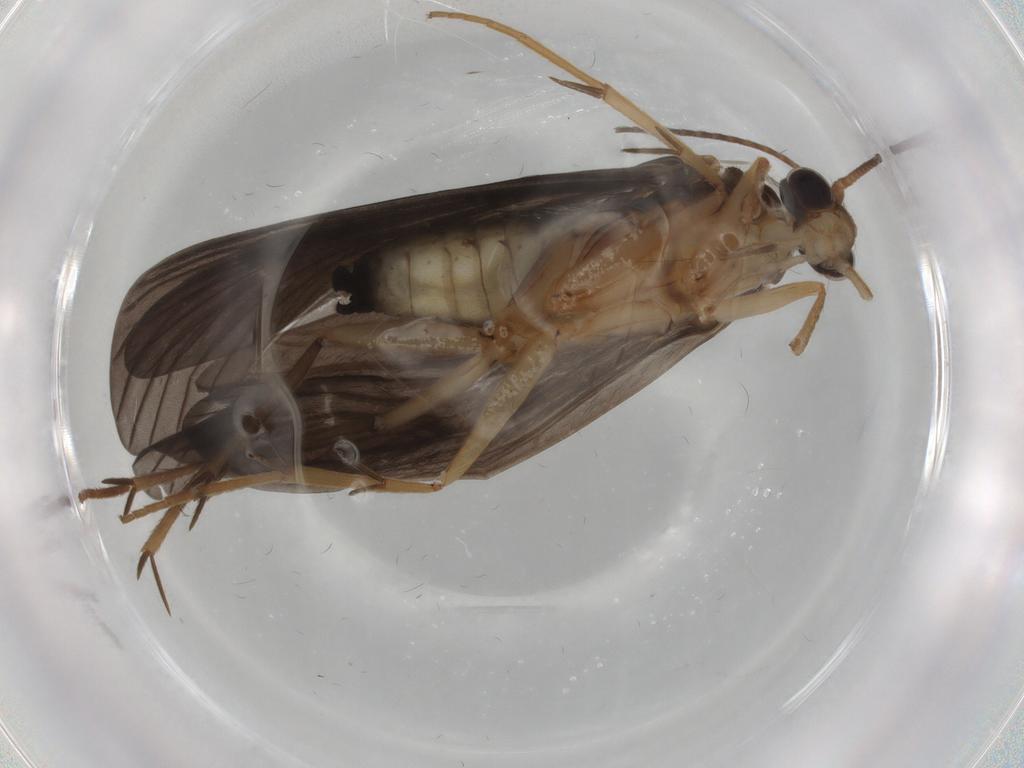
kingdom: Animalia
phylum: Arthropoda
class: Insecta
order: Trichoptera
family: Philopotamidae
